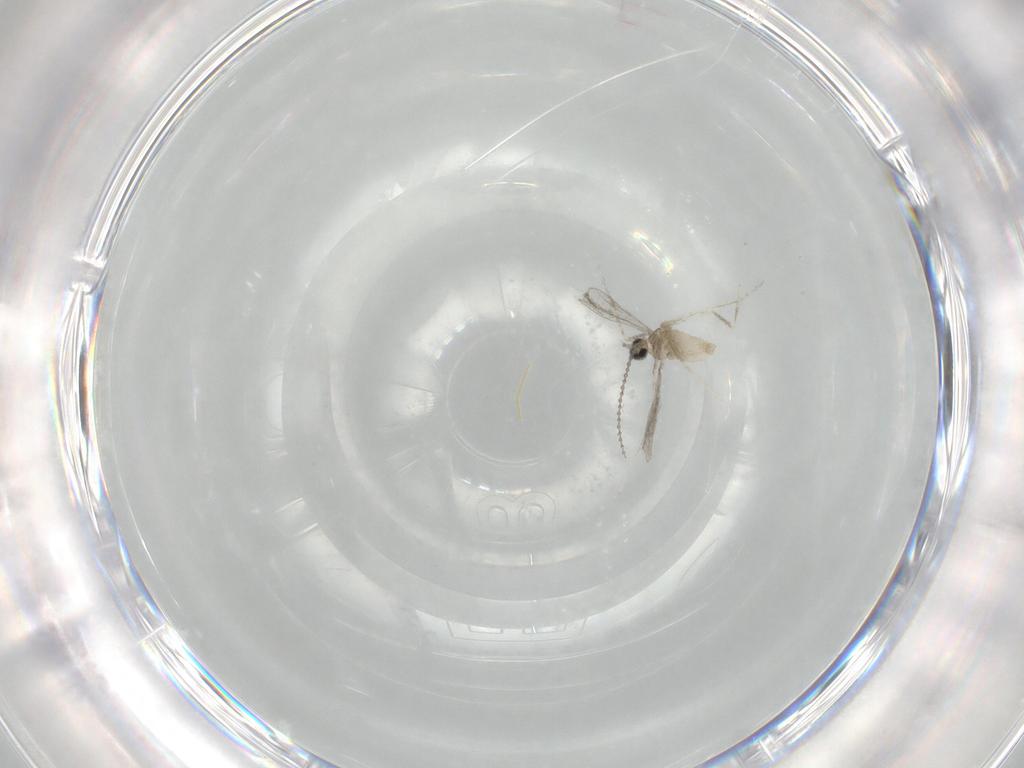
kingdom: Animalia
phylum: Arthropoda
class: Insecta
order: Diptera
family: Cecidomyiidae
